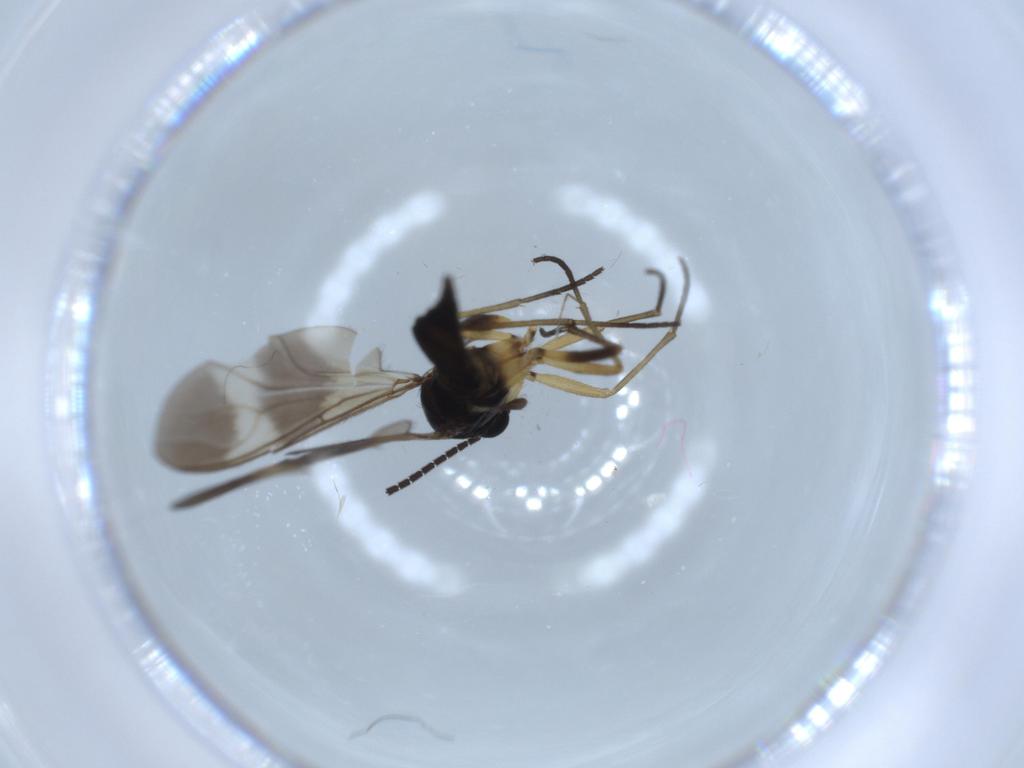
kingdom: Animalia
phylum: Arthropoda
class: Insecta
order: Diptera
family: Sciaridae
